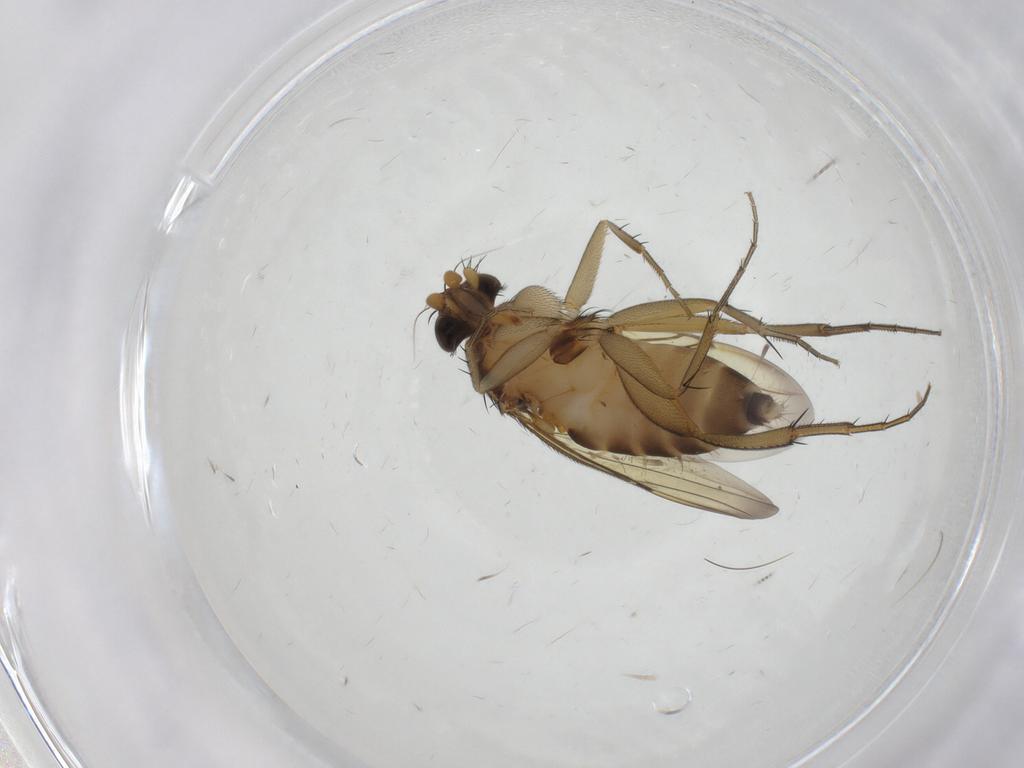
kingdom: Animalia
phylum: Arthropoda
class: Insecta
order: Diptera
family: Phoridae
